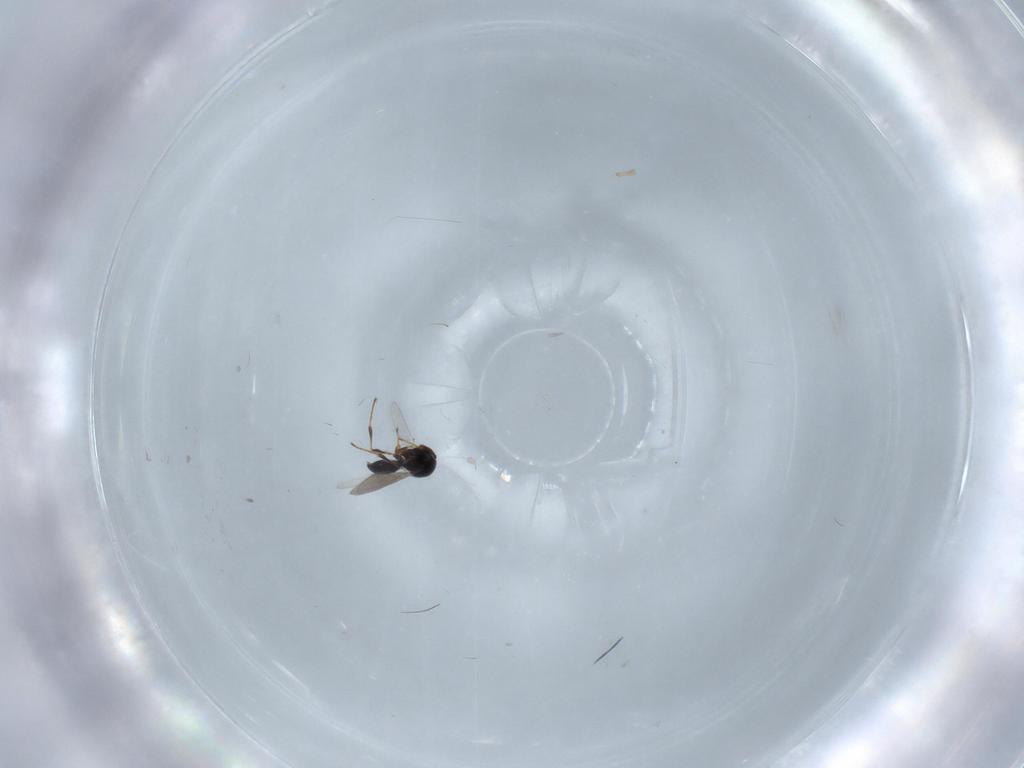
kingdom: Animalia
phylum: Arthropoda
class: Insecta
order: Hymenoptera
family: Platygastridae
